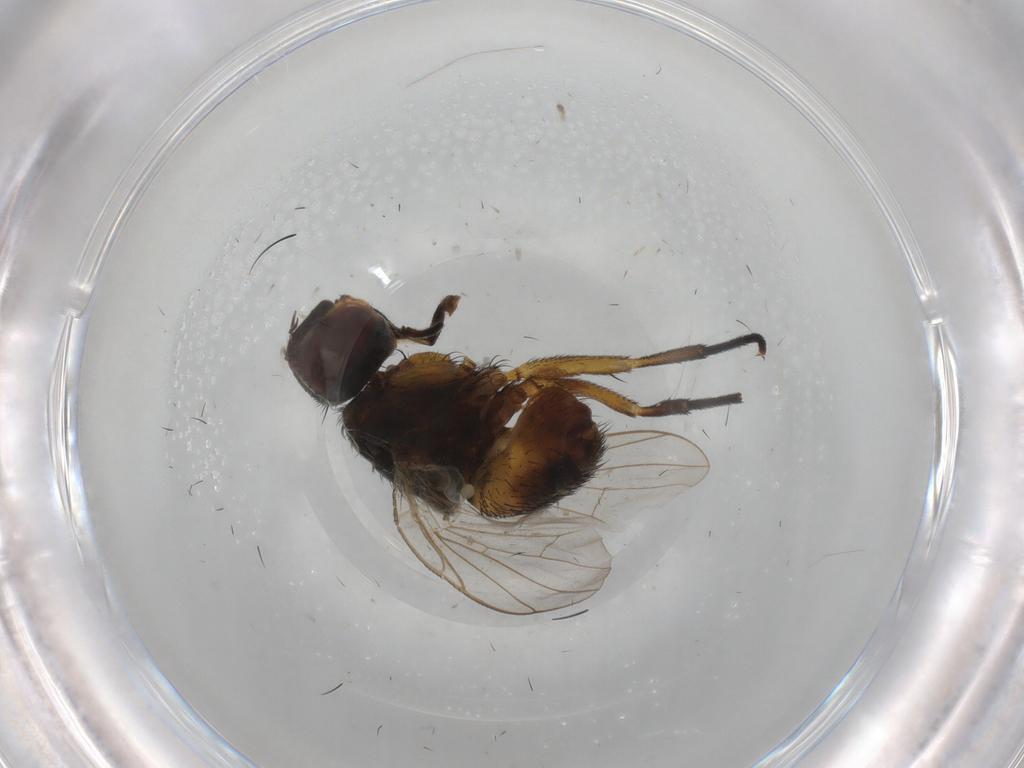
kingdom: Animalia
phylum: Arthropoda
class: Insecta
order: Diptera
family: Muscidae
